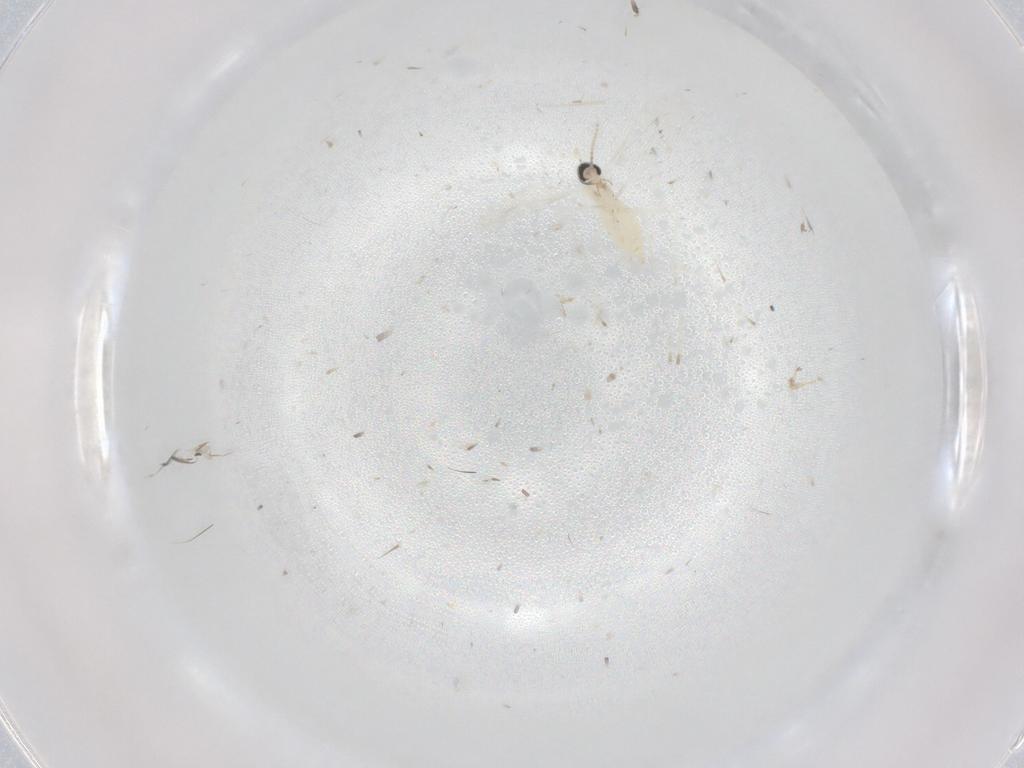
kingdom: Animalia
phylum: Arthropoda
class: Insecta
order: Diptera
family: Cecidomyiidae
